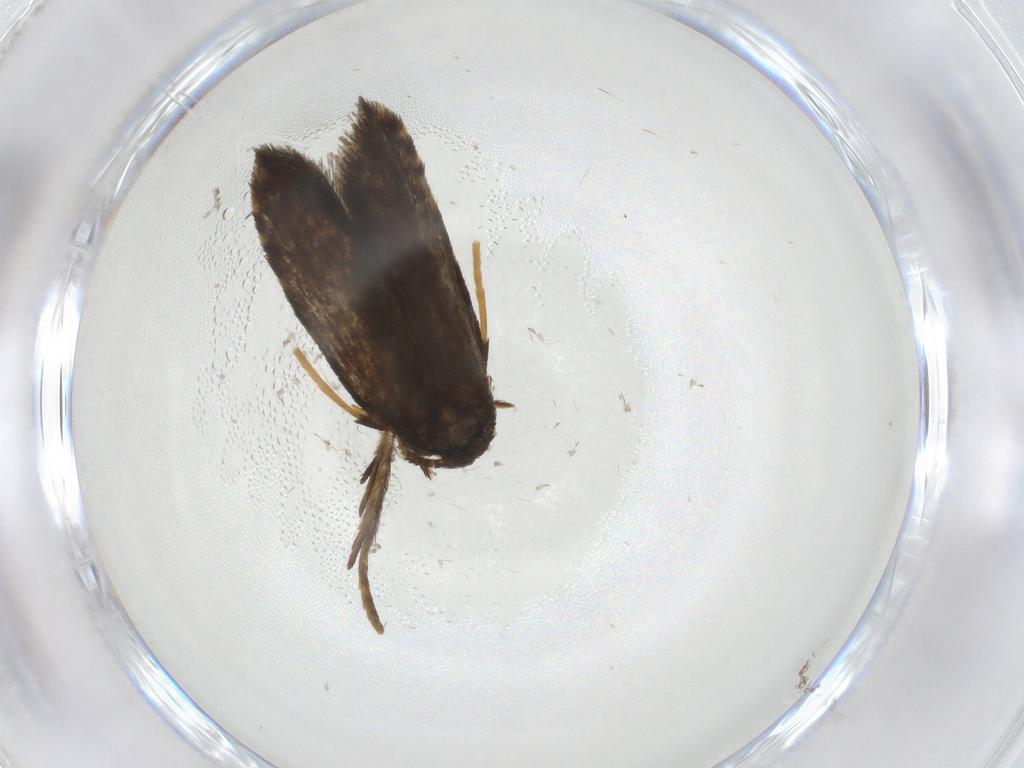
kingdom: Animalia
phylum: Arthropoda
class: Insecta
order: Lepidoptera
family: Psychidae
